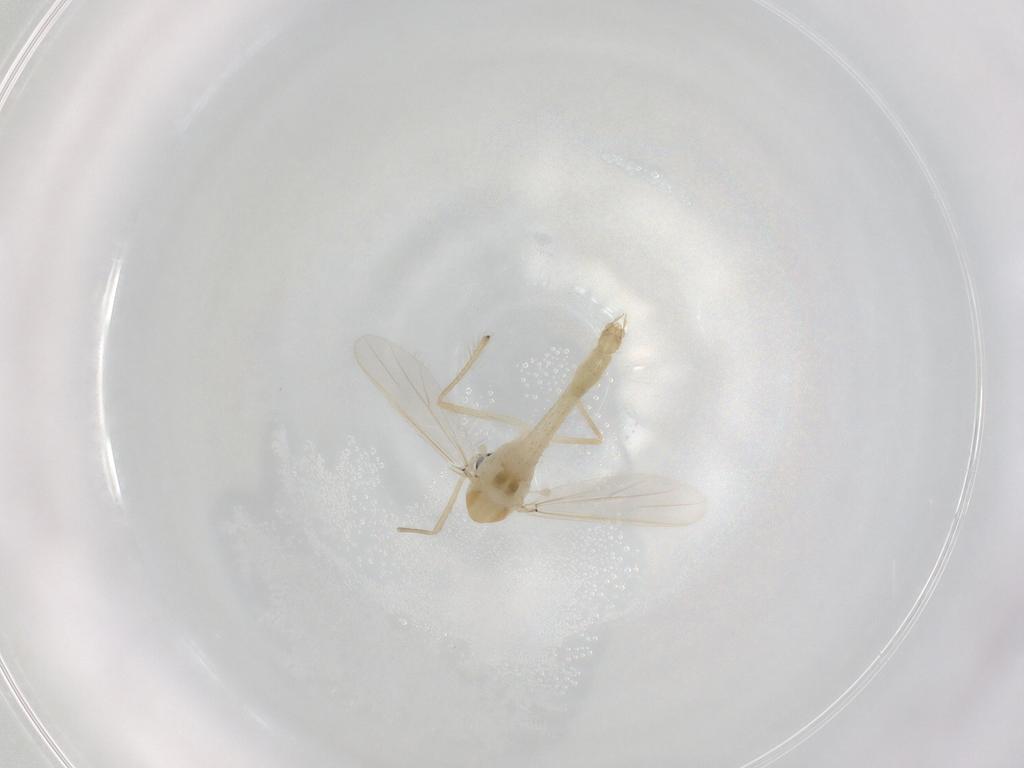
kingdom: Animalia
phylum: Arthropoda
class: Insecta
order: Diptera
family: Chironomidae
